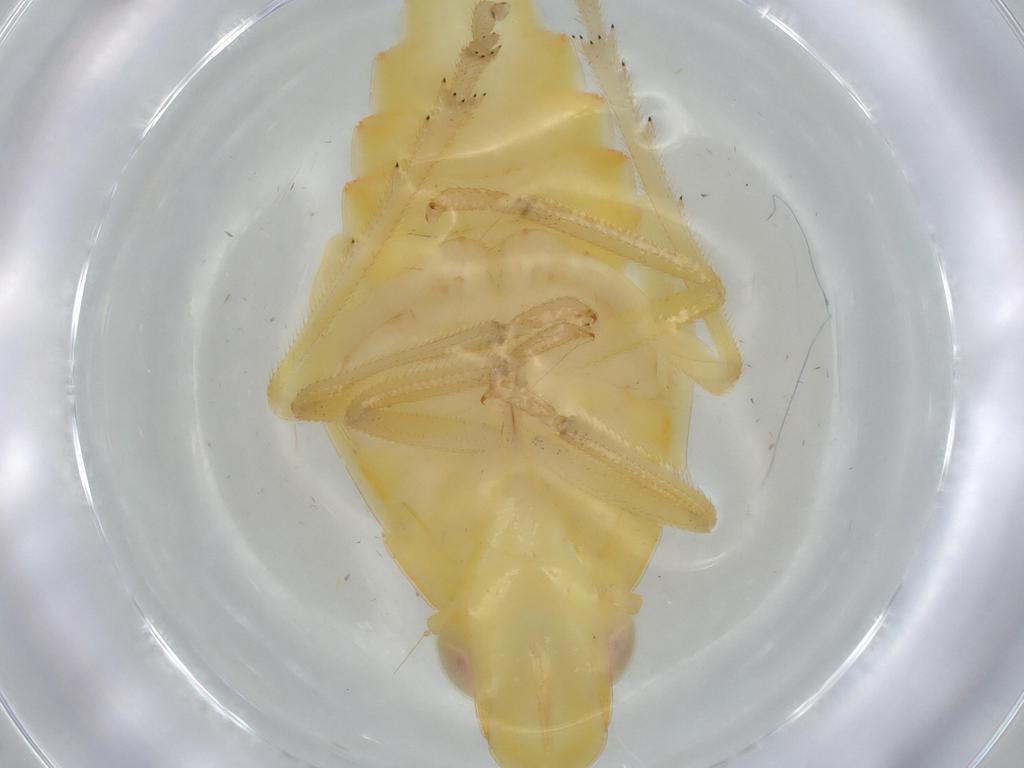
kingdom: Animalia
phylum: Arthropoda
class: Insecta
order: Hemiptera
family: Tropiduchidae
